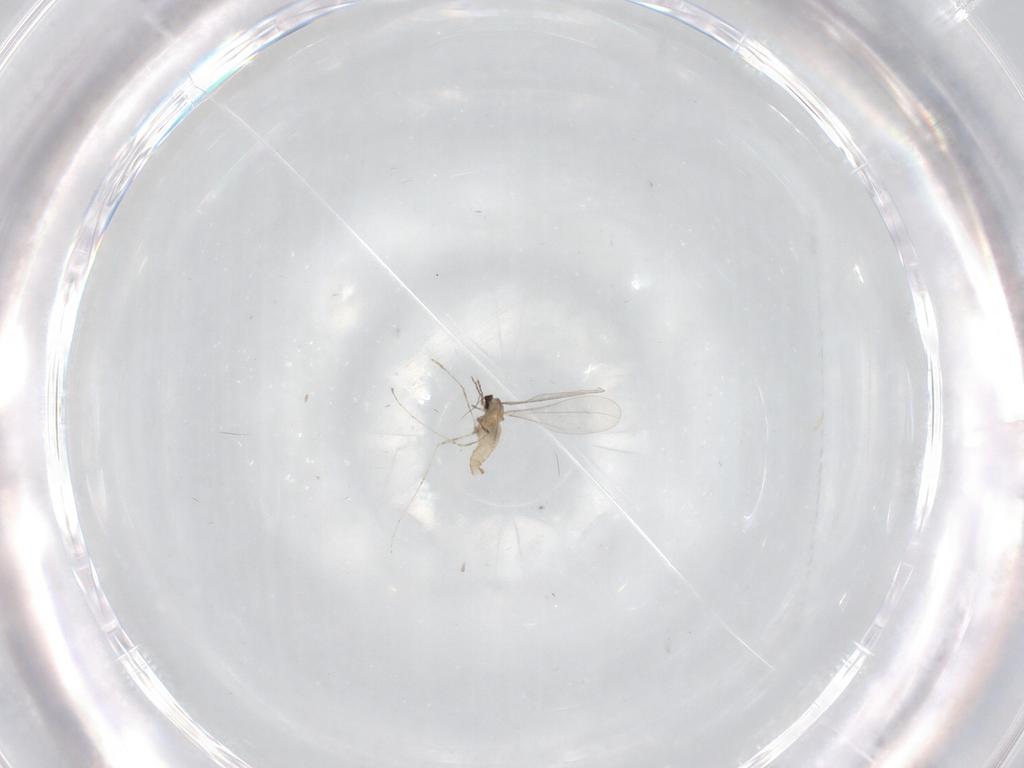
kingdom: Animalia
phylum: Arthropoda
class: Insecta
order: Diptera
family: Cecidomyiidae
